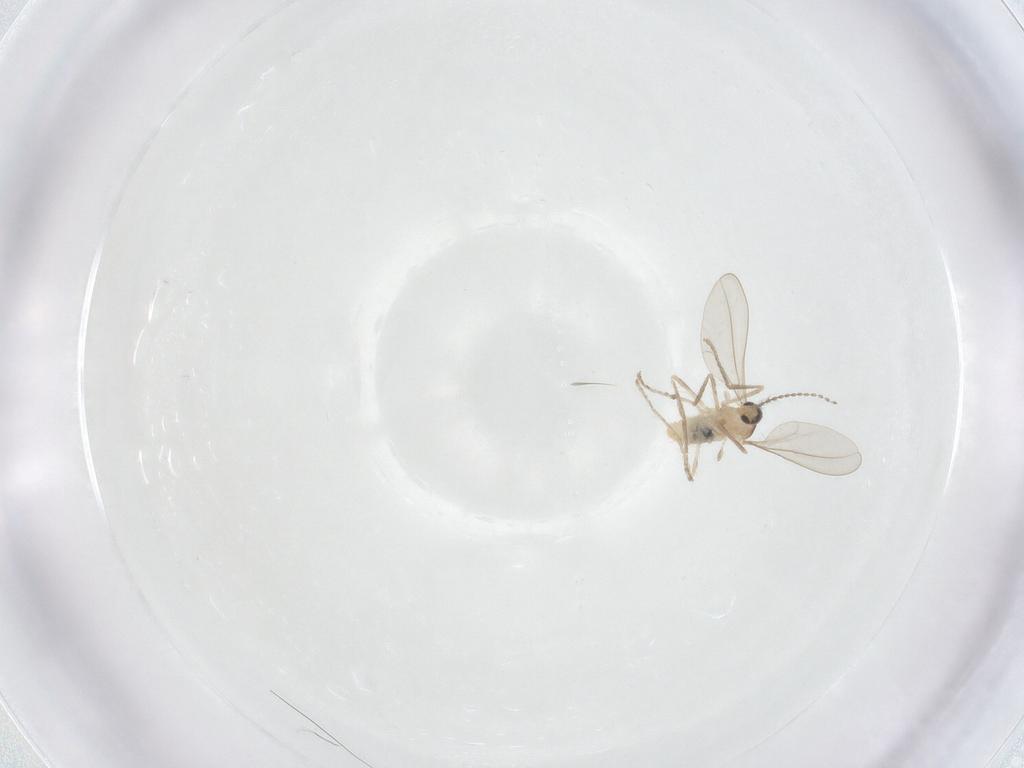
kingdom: Animalia
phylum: Arthropoda
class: Insecta
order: Diptera
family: Cecidomyiidae
